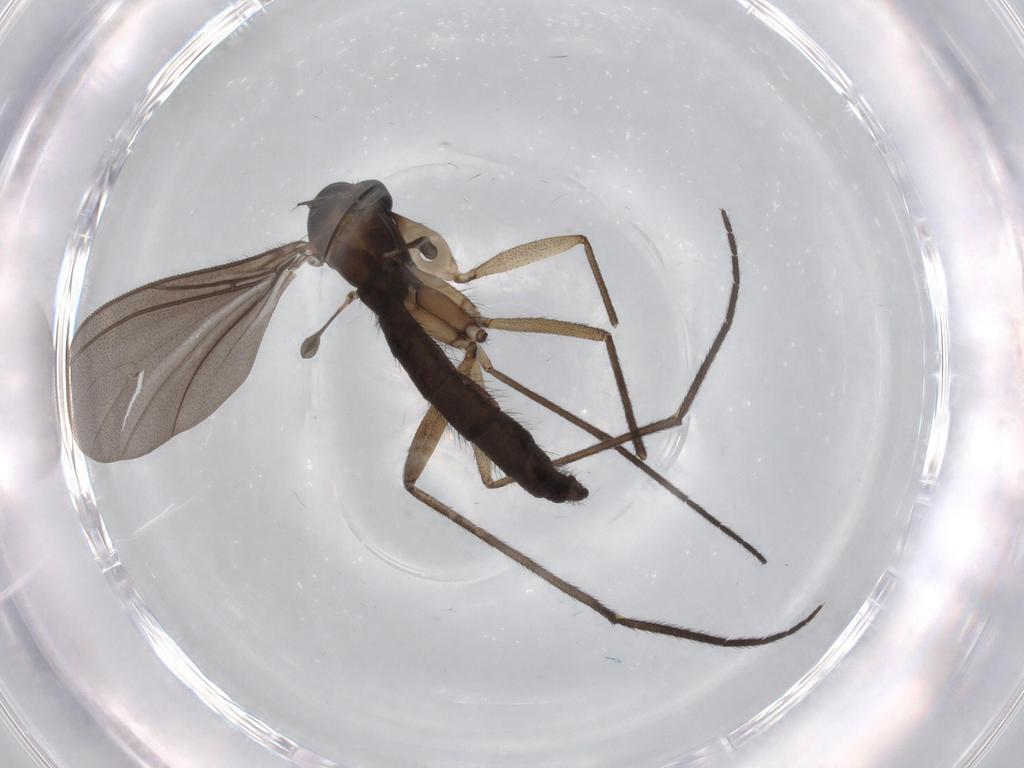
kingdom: Animalia
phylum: Arthropoda
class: Insecta
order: Diptera
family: Sciaridae
